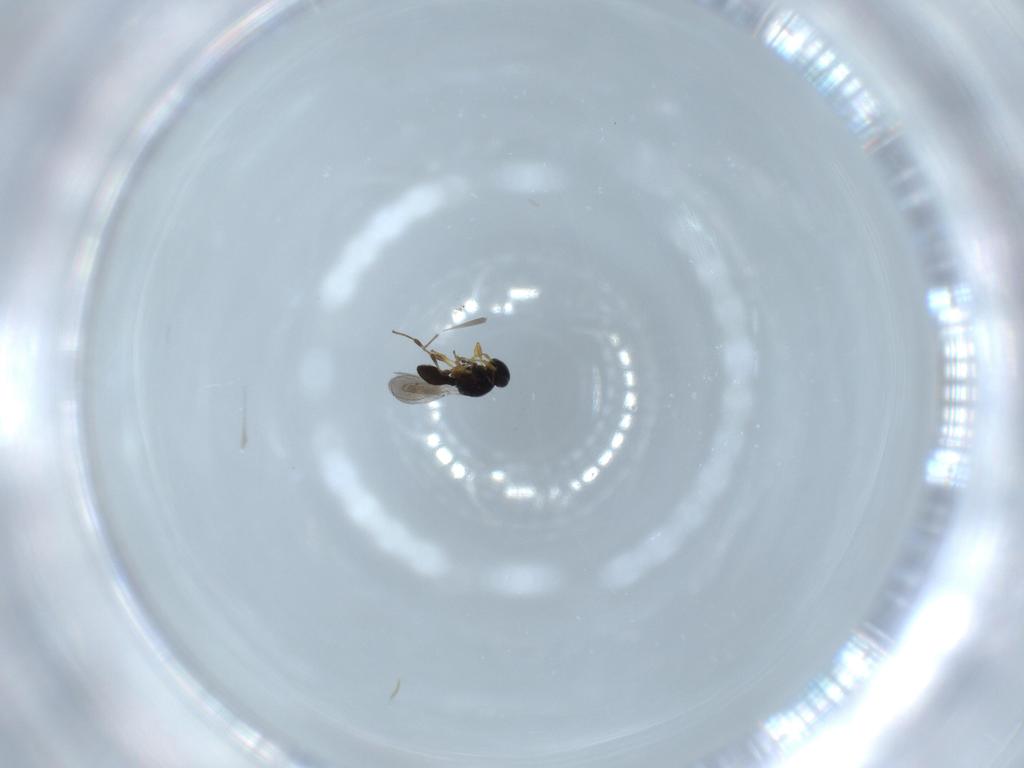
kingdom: Animalia
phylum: Arthropoda
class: Insecta
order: Hymenoptera
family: Platygastridae
